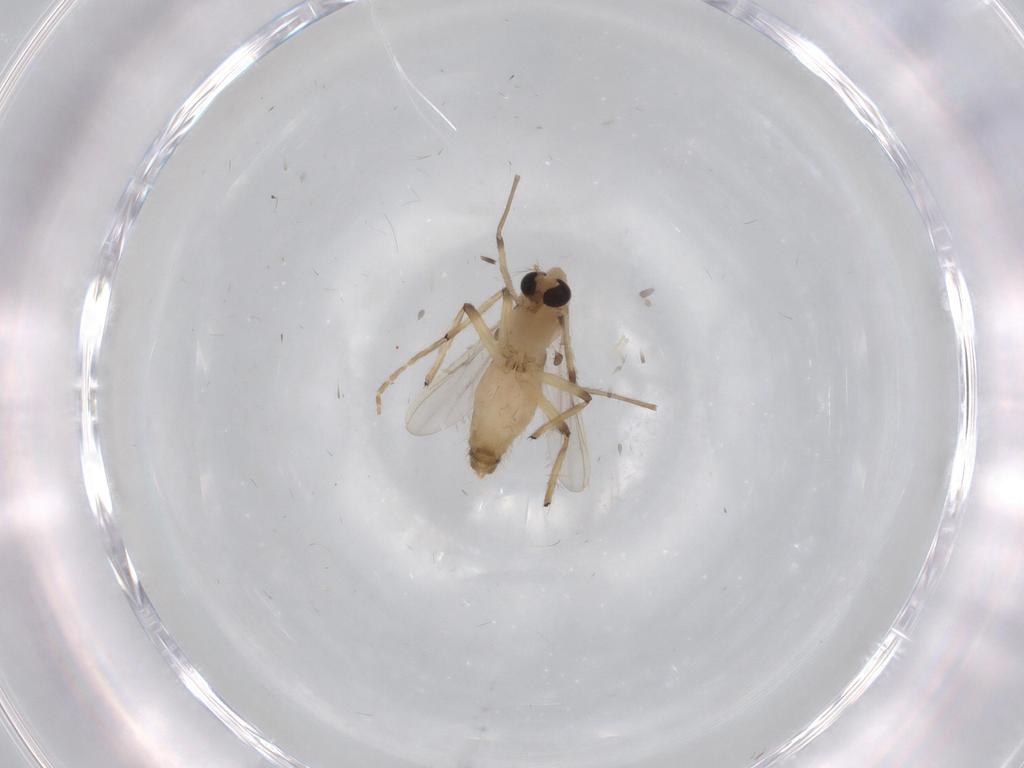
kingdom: Animalia
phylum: Arthropoda
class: Insecta
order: Diptera
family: Chironomidae
